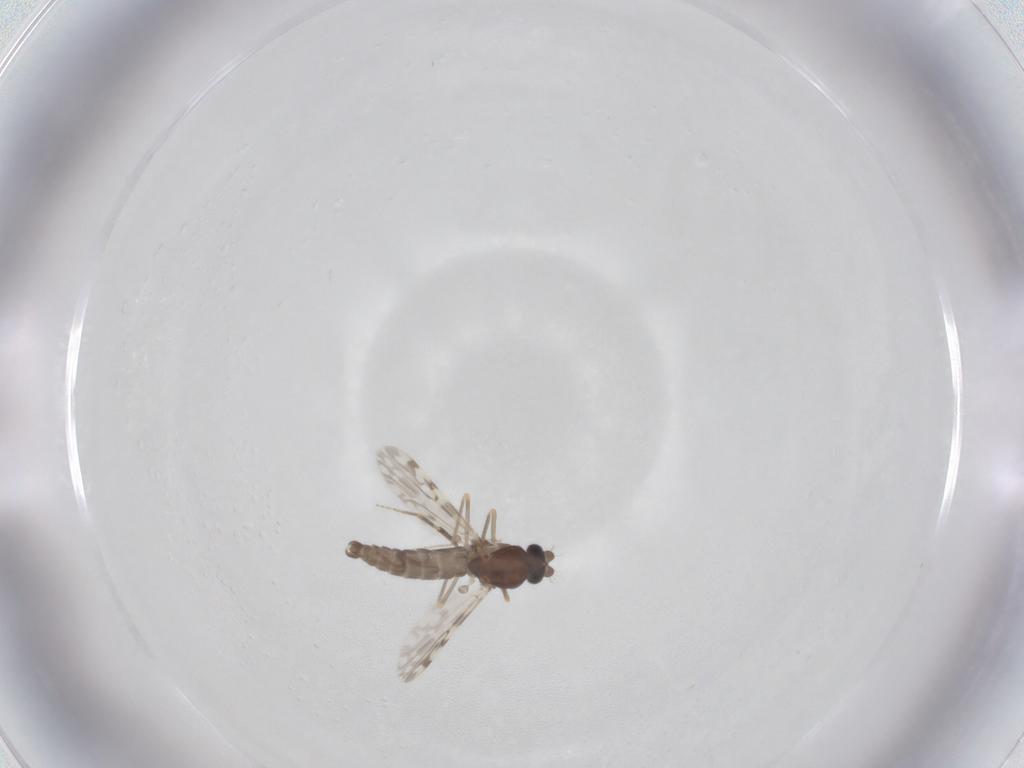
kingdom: Animalia
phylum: Arthropoda
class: Insecta
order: Diptera
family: Ceratopogonidae
